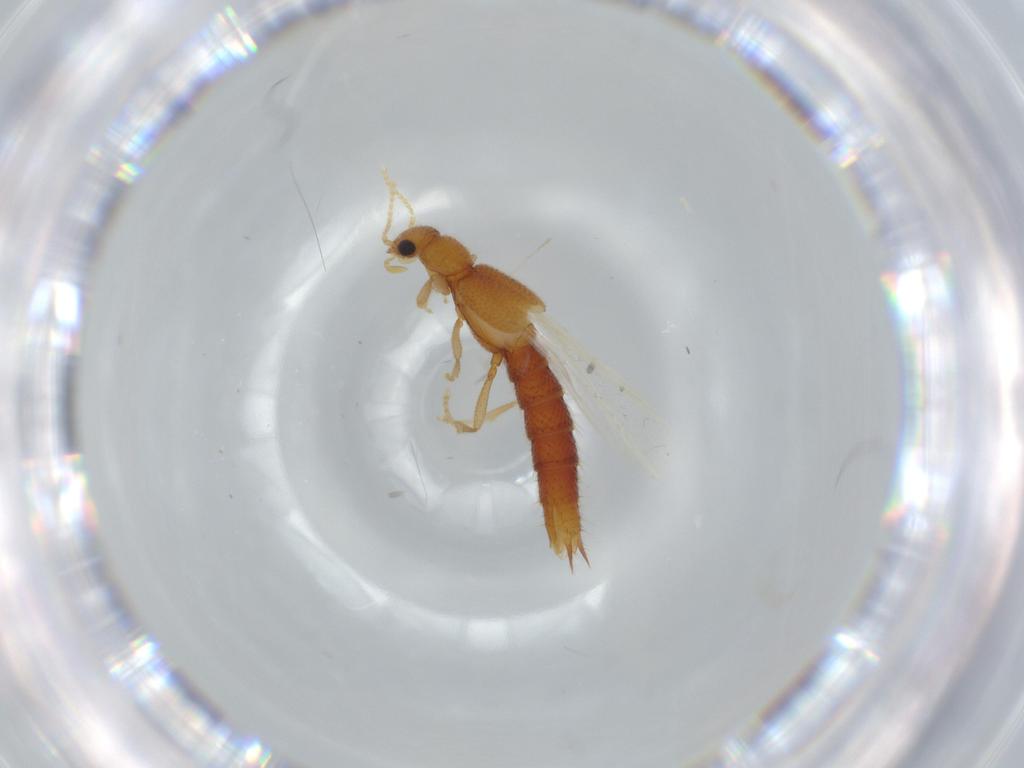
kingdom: Animalia
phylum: Arthropoda
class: Insecta
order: Coleoptera
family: Staphylinidae
